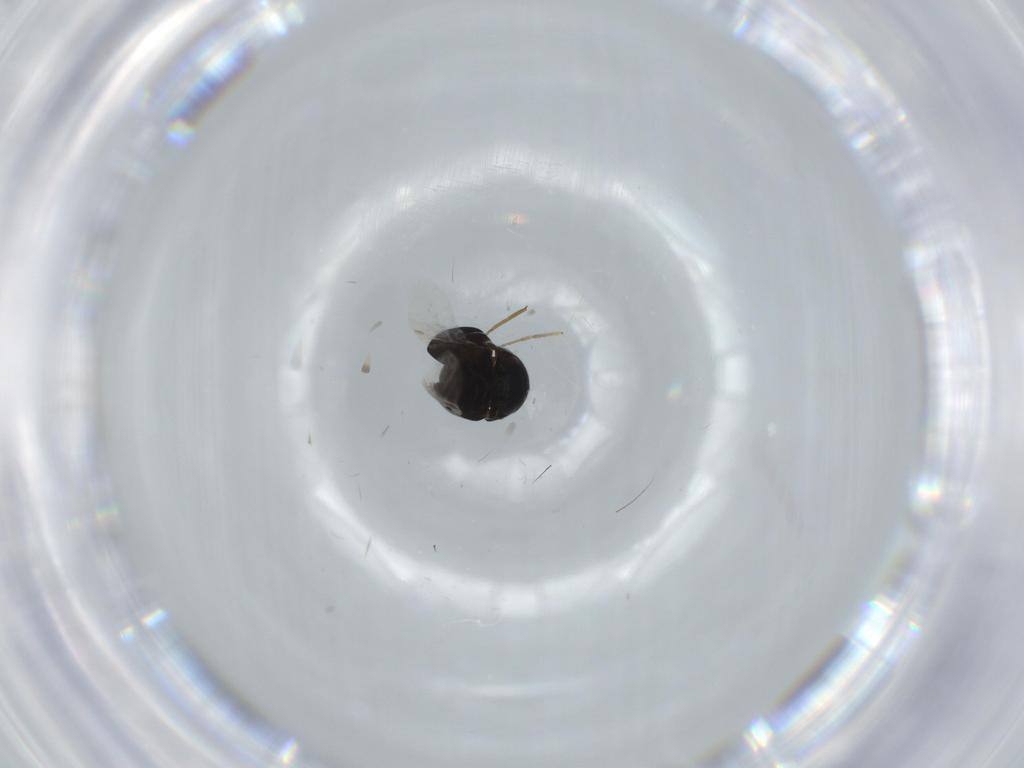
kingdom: Animalia
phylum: Arthropoda
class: Insecta
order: Coleoptera
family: Cybocephalidae
